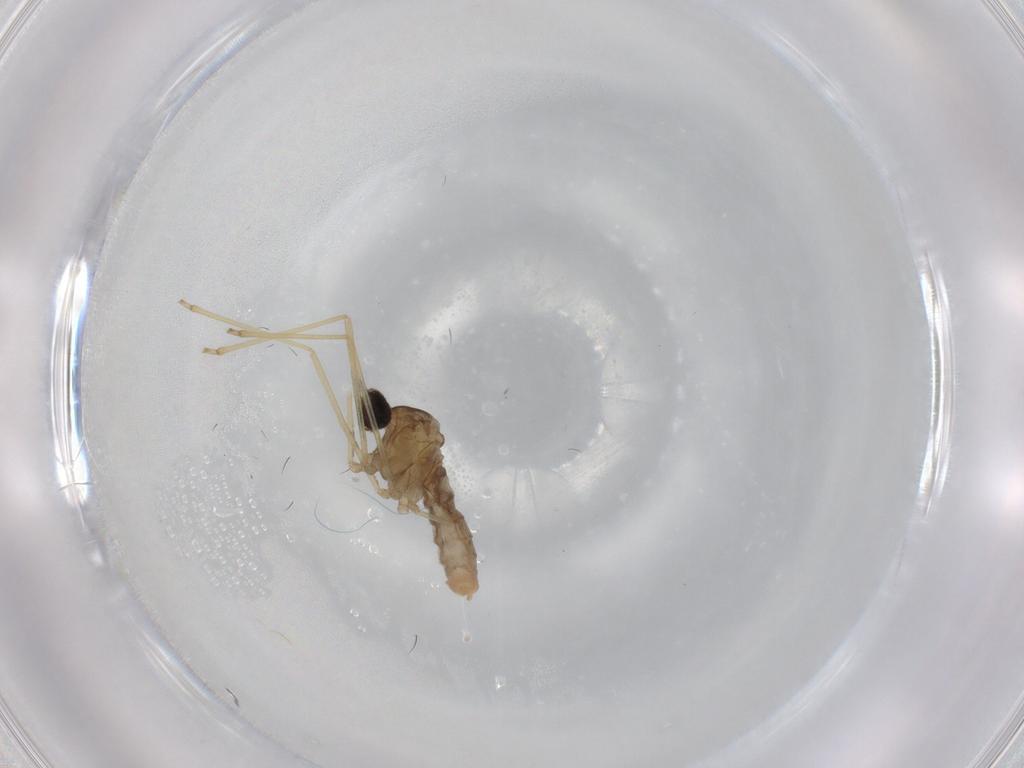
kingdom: Animalia
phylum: Arthropoda
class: Insecta
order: Diptera
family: Cecidomyiidae
